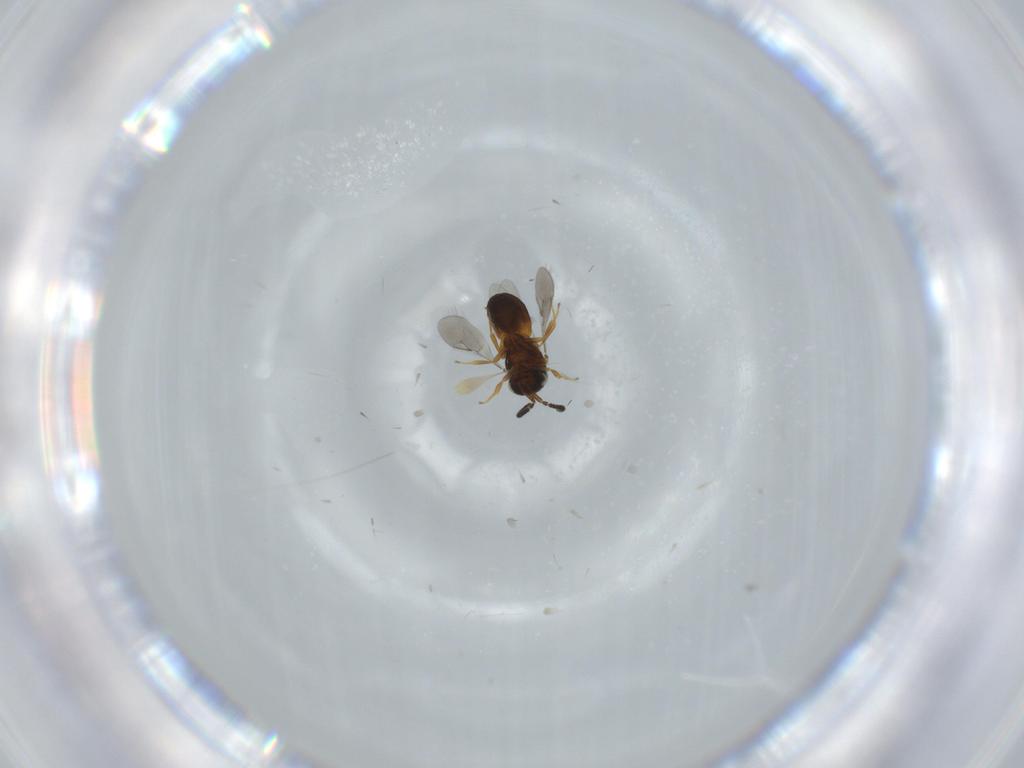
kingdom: Animalia
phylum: Arthropoda
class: Insecta
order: Hymenoptera
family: Scelionidae
